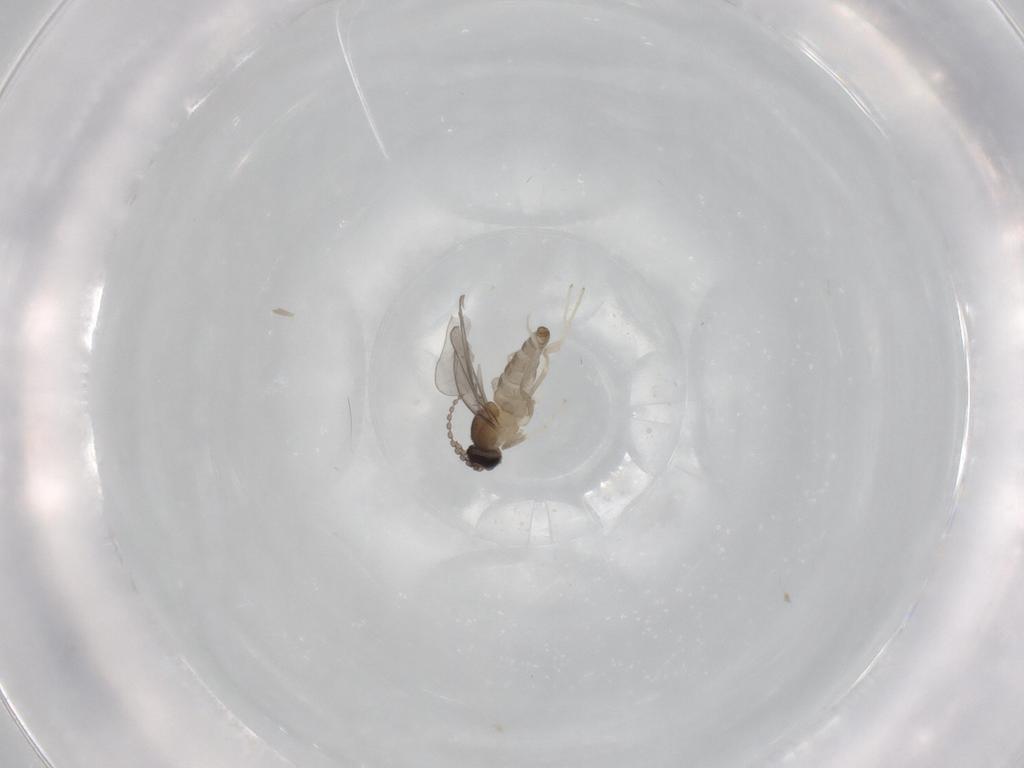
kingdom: Animalia
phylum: Arthropoda
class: Insecta
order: Diptera
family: Cecidomyiidae
